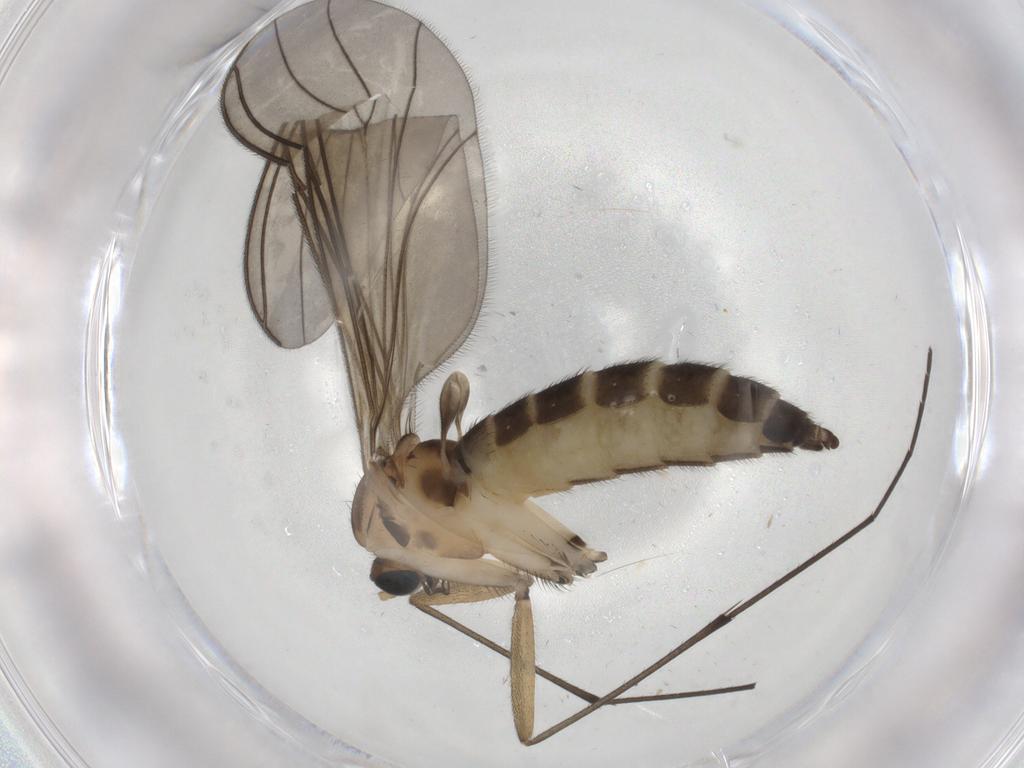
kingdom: Animalia
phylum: Arthropoda
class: Insecta
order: Diptera
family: Sciaridae
